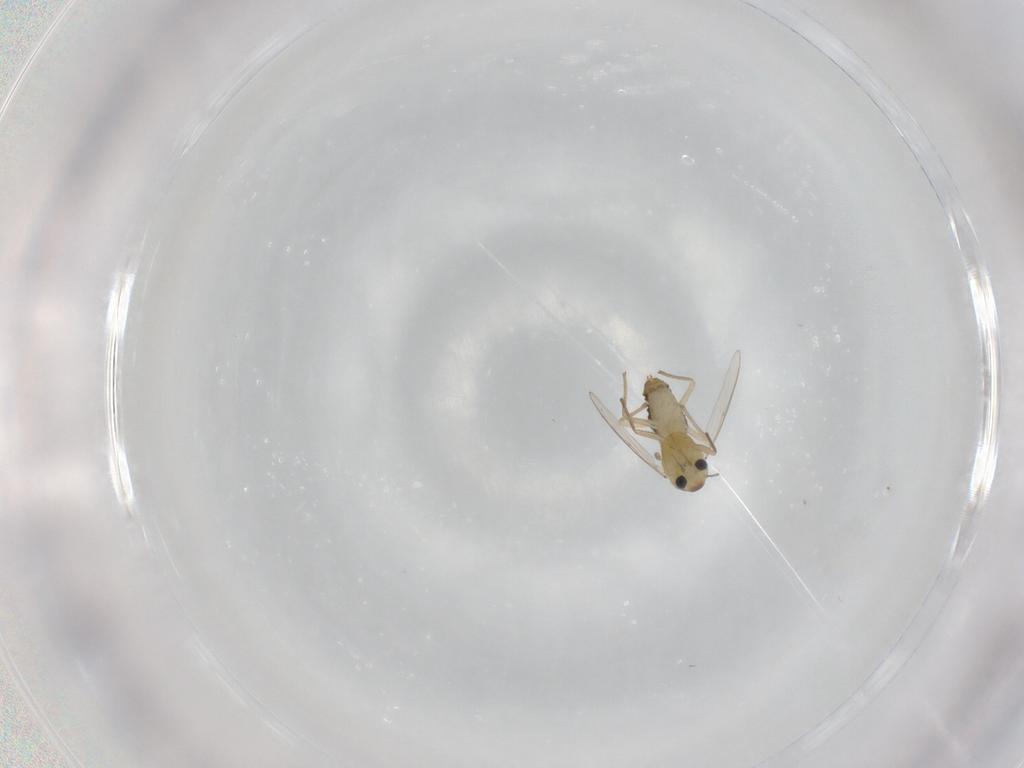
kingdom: Animalia
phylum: Arthropoda
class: Insecta
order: Diptera
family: Chironomidae
